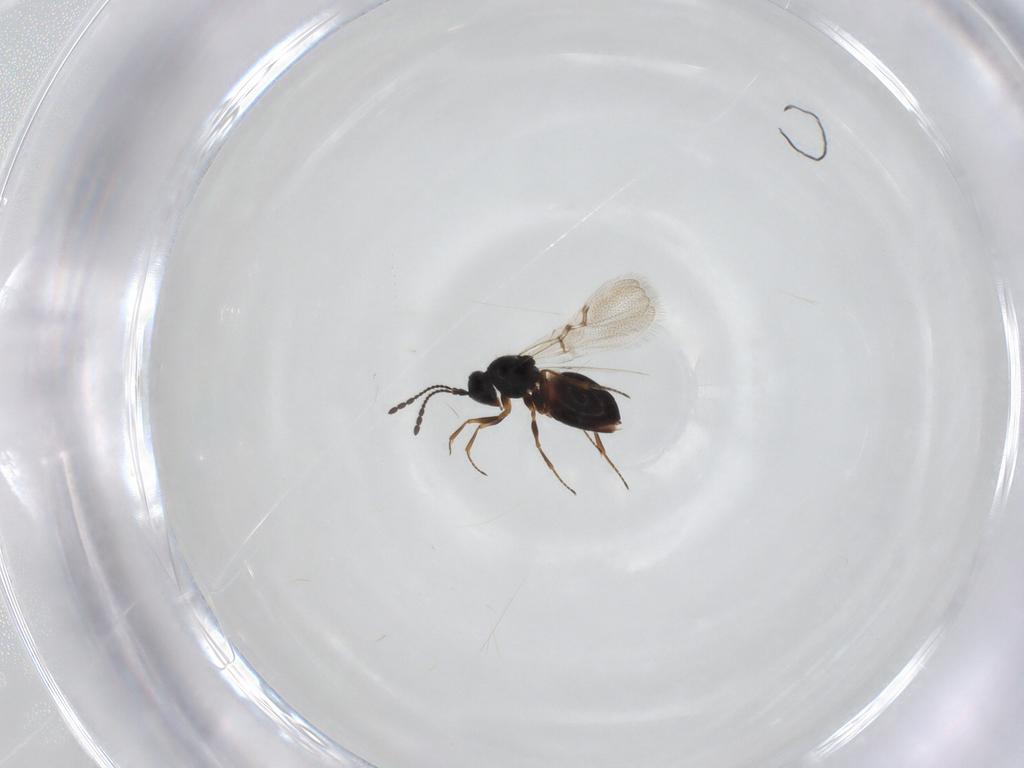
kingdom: Animalia
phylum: Arthropoda
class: Insecta
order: Hymenoptera
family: Figitidae
